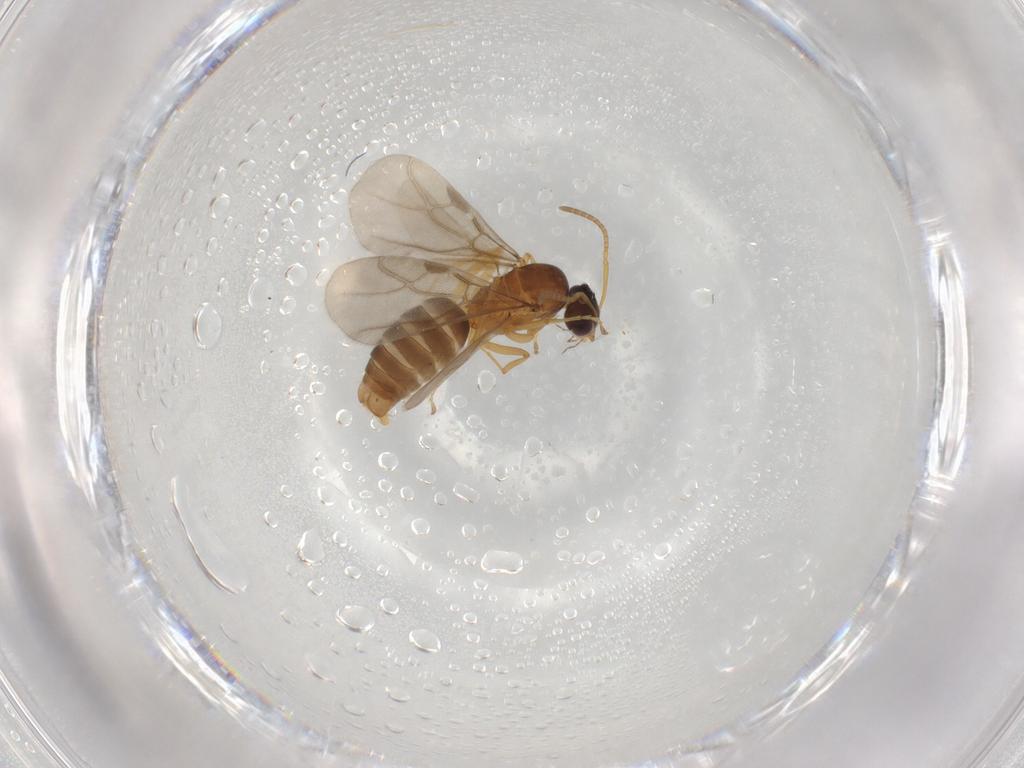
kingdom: Animalia
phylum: Arthropoda
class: Insecta
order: Hymenoptera
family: Formicidae
